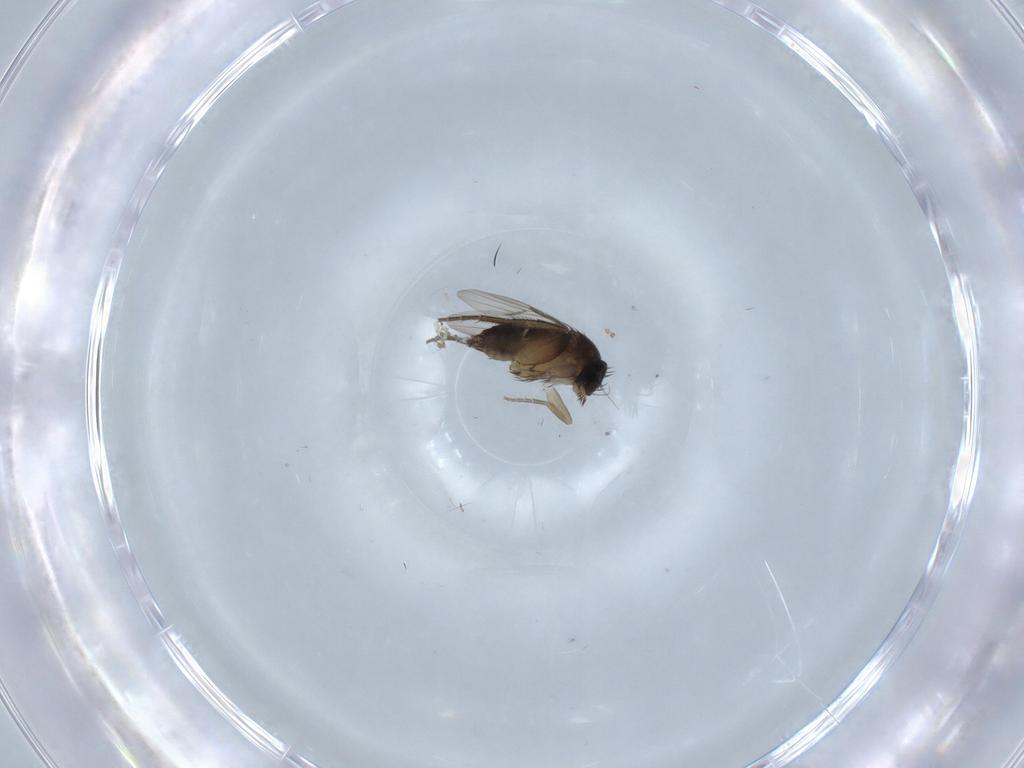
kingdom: Animalia
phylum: Arthropoda
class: Insecta
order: Diptera
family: Phoridae
